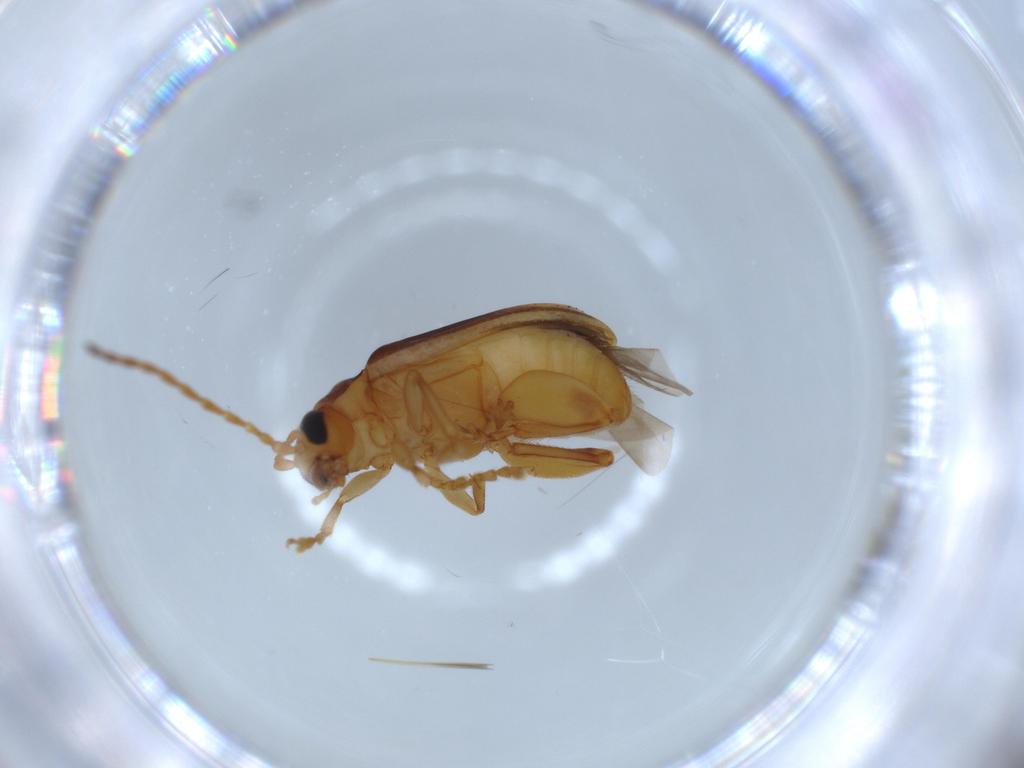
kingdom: Animalia
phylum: Arthropoda
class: Insecta
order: Coleoptera
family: Chrysomelidae
